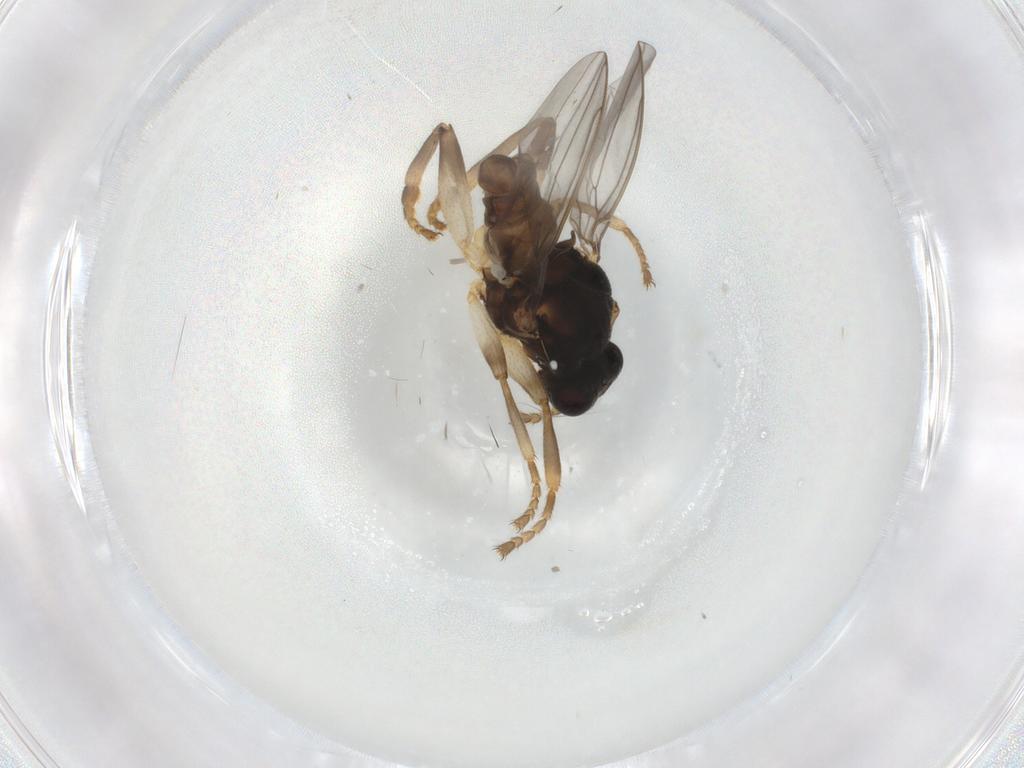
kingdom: Animalia
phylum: Arthropoda
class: Insecta
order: Diptera
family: Sphaeroceridae
